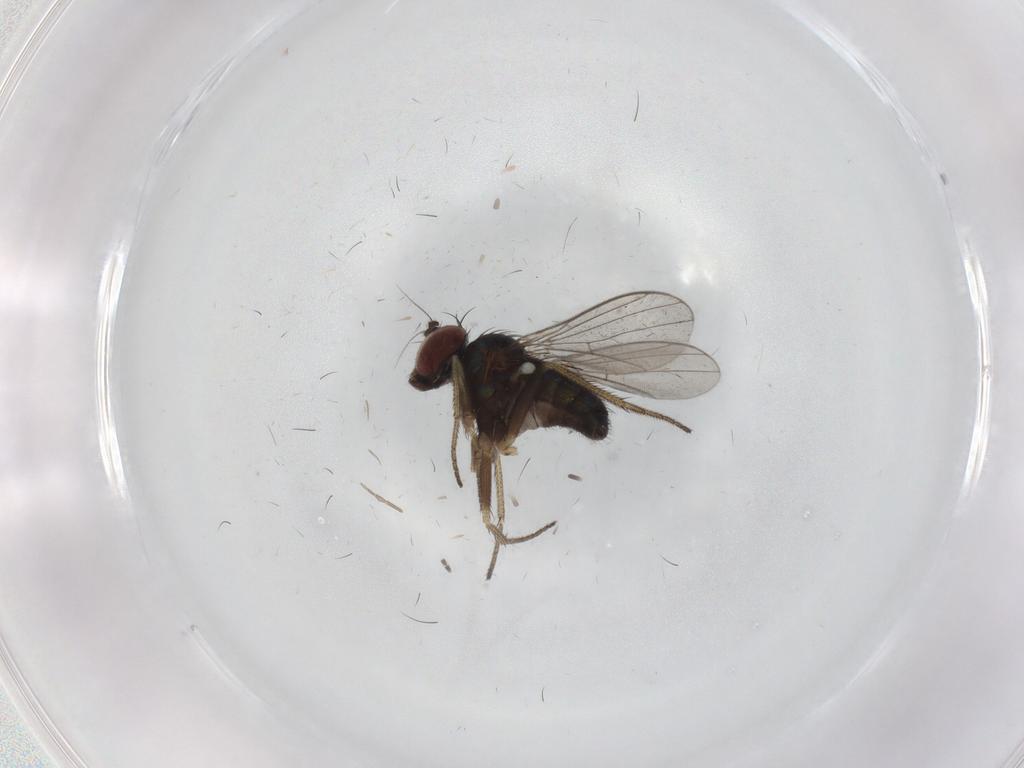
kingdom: Animalia
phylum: Arthropoda
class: Insecta
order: Diptera
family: Dolichopodidae
